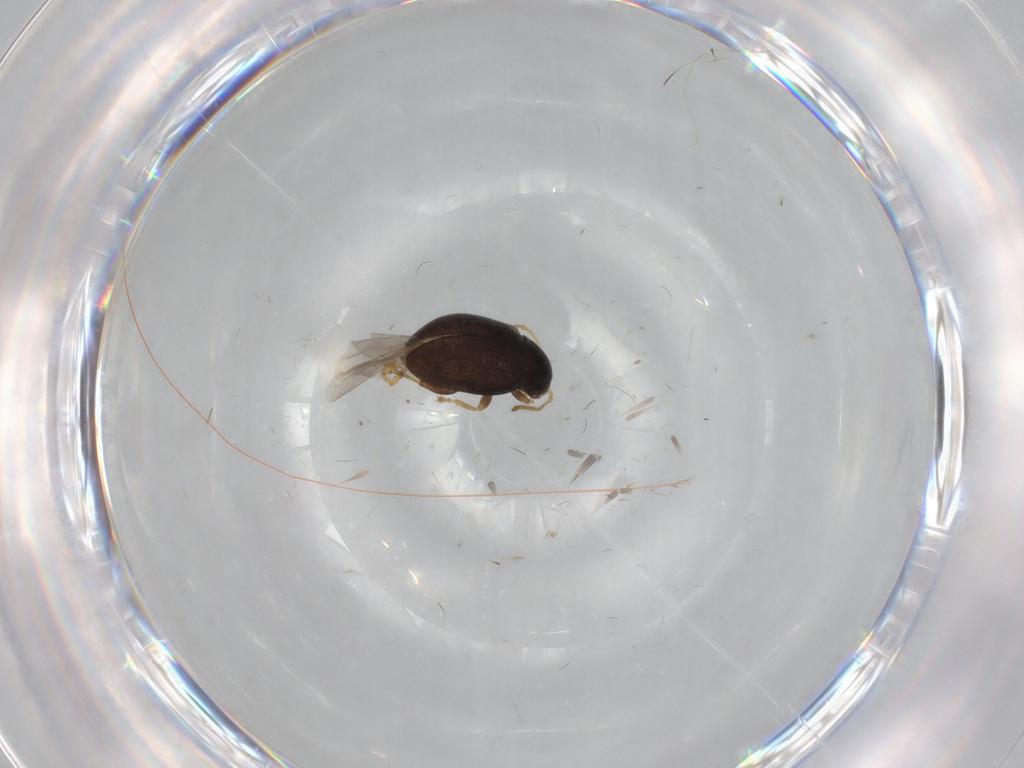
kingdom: Animalia
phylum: Arthropoda
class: Insecta
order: Coleoptera
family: Chrysomelidae
